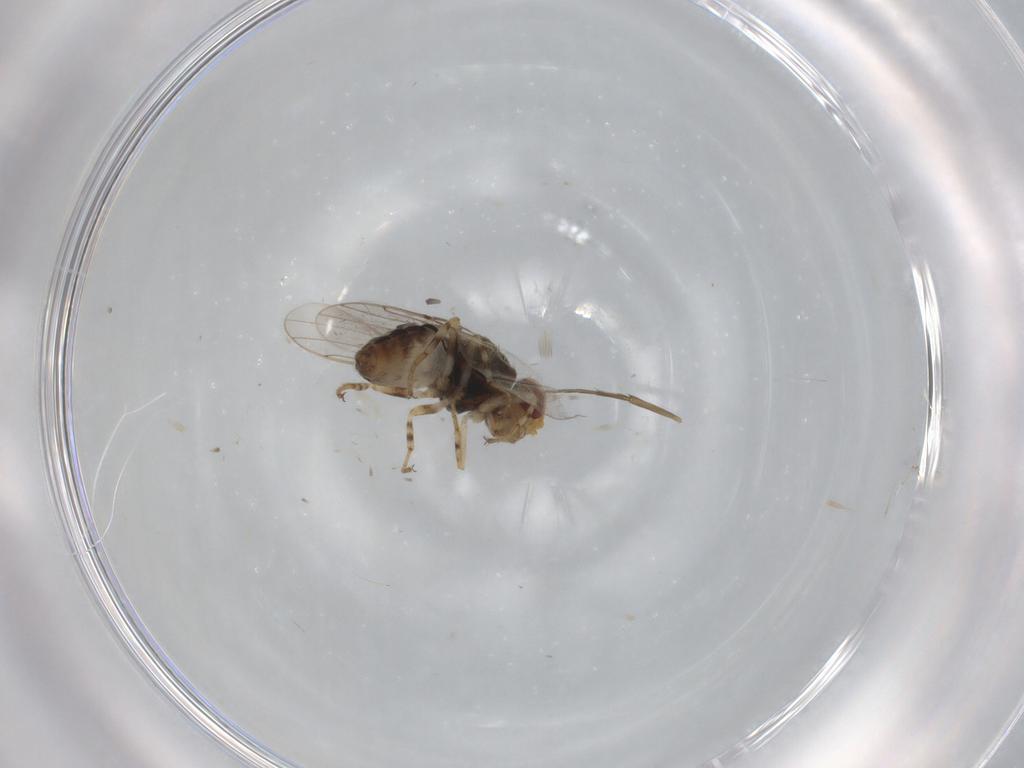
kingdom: Animalia
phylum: Arthropoda
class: Insecta
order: Diptera
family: Chloropidae
